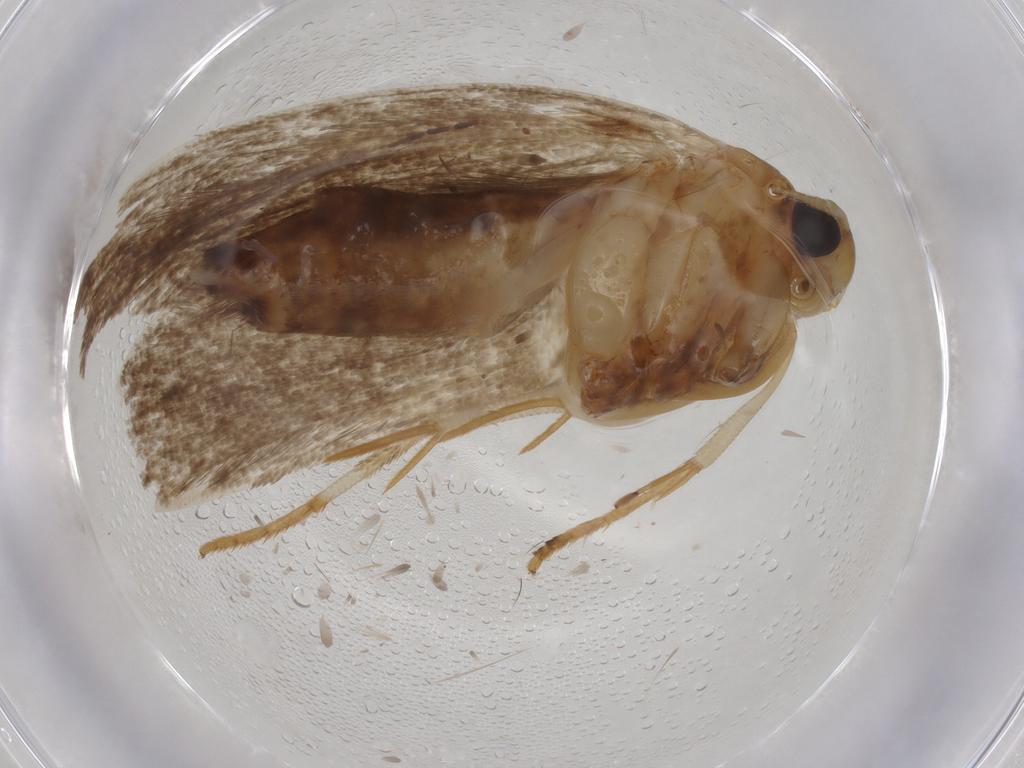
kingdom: Animalia
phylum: Arthropoda
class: Insecta
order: Lepidoptera
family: Gelechiidae
